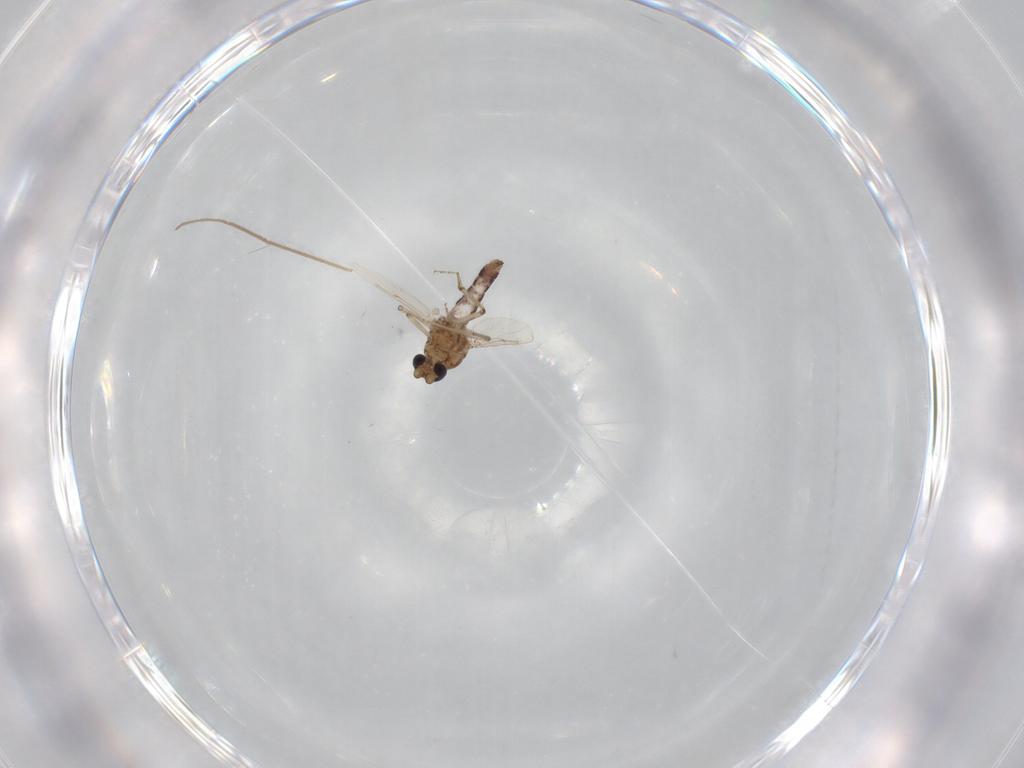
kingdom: Animalia
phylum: Arthropoda
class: Insecta
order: Diptera
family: Ceratopogonidae
